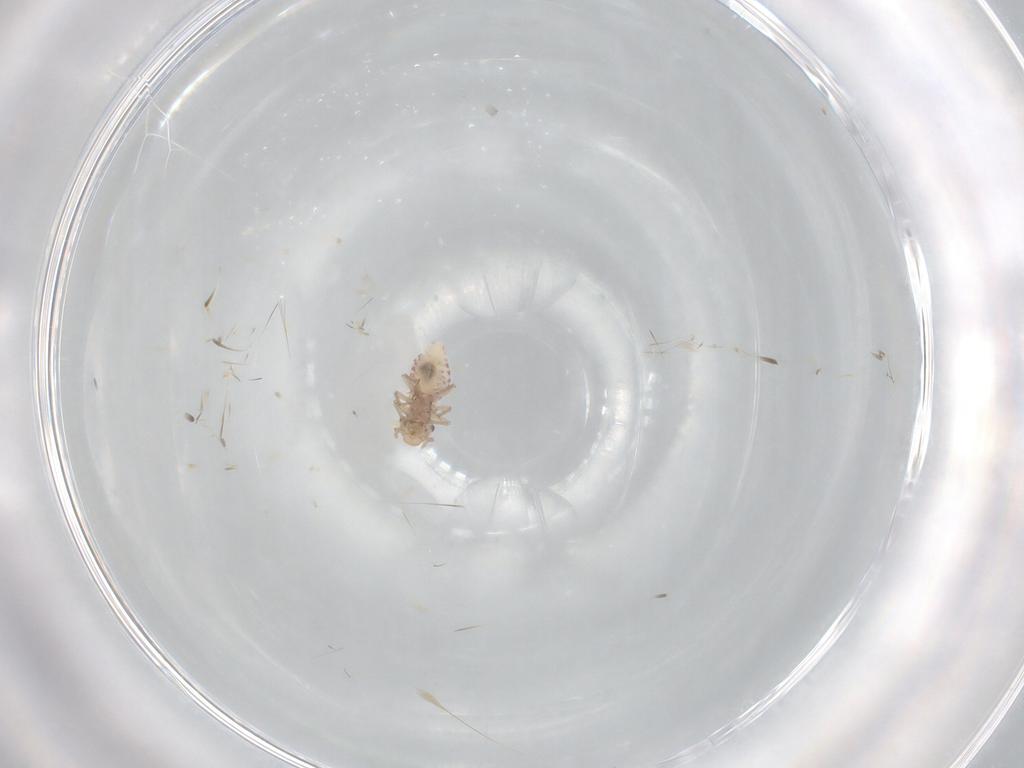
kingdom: Animalia
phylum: Arthropoda
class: Insecta
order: Psocodea
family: Lepidopsocidae
